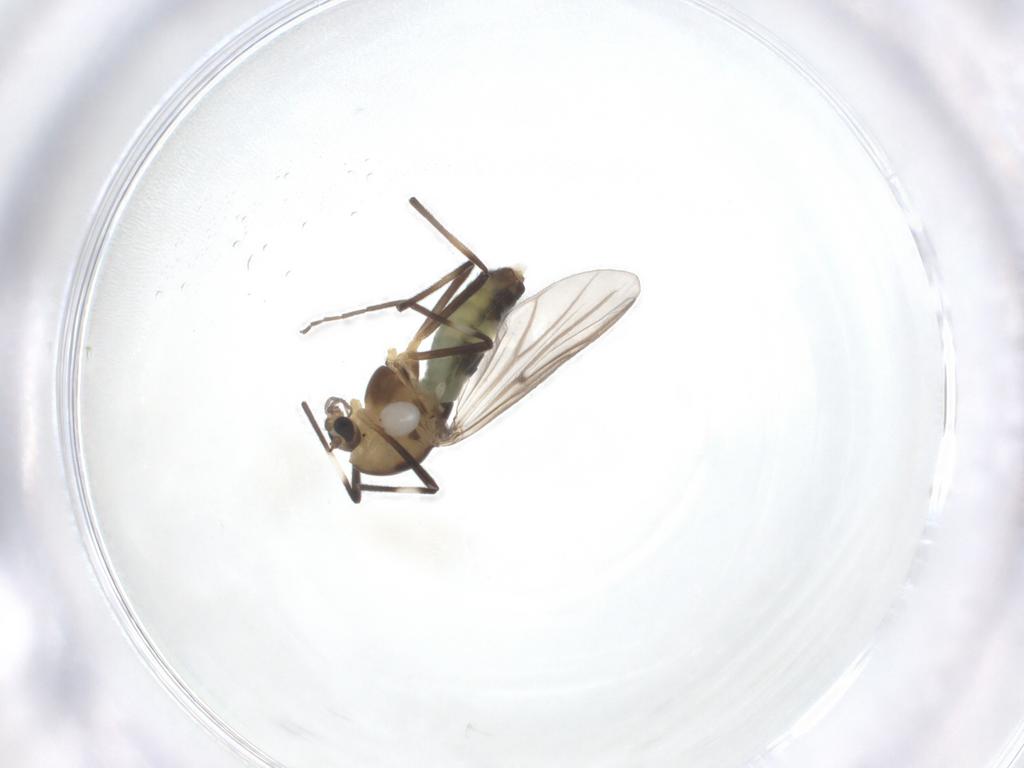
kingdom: Animalia
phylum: Arthropoda
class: Insecta
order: Diptera
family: Chironomidae
